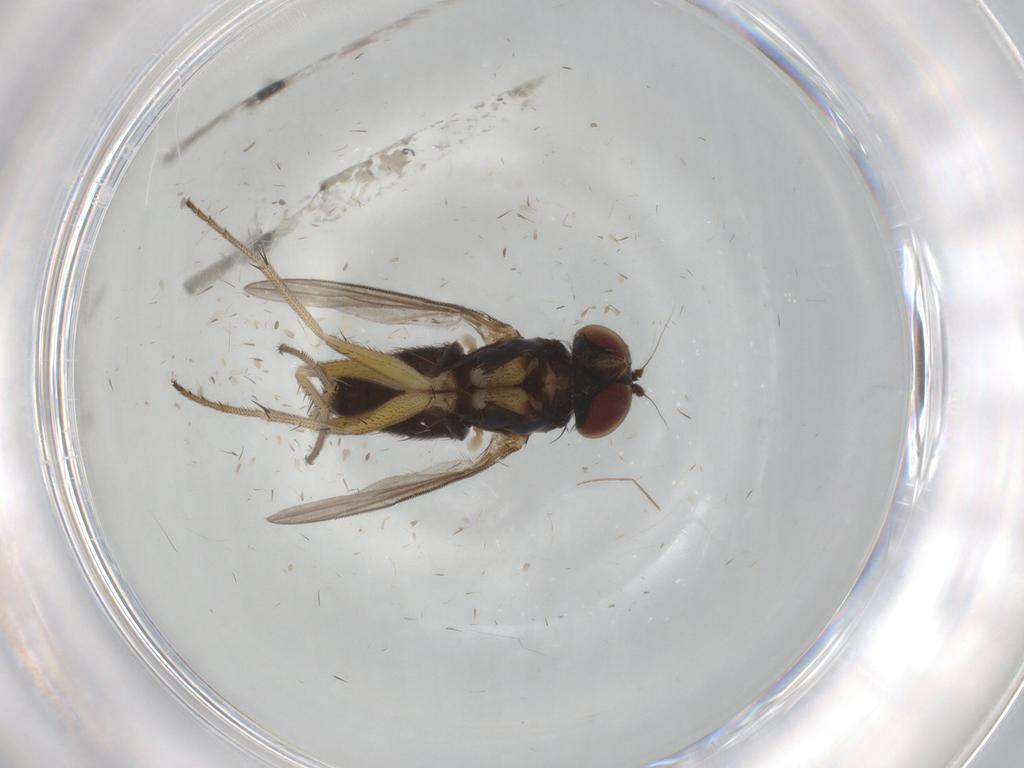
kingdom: Animalia
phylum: Arthropoda
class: Insecta
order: Diptera
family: Dolichopodidae
